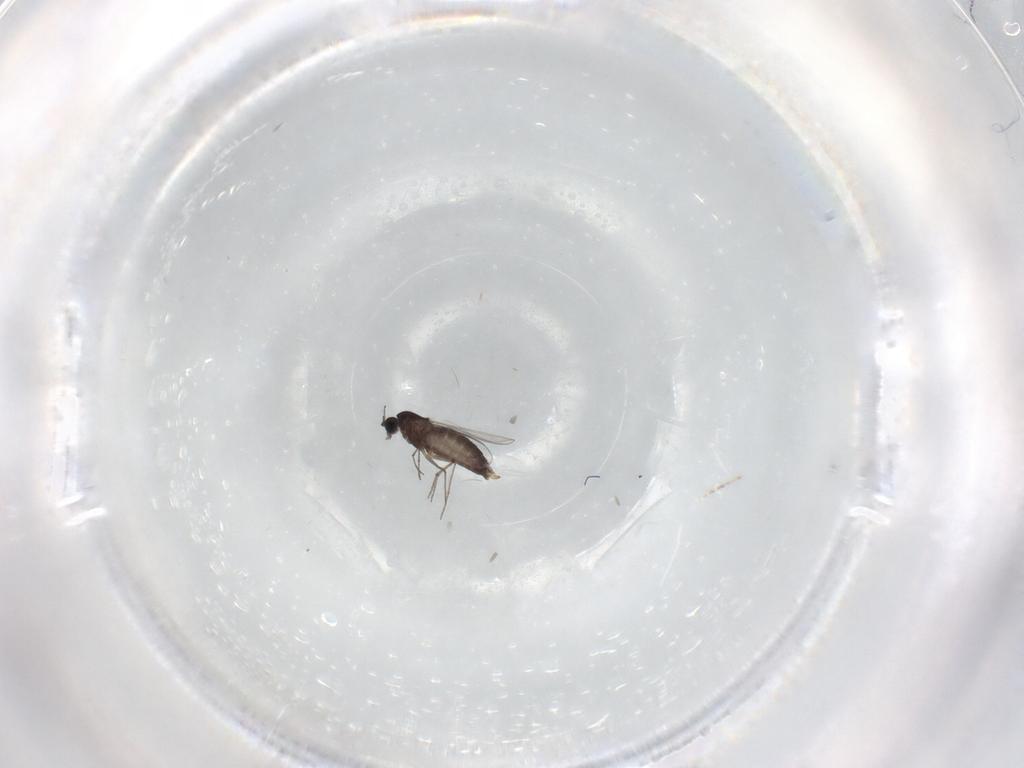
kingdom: Animalia
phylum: Arthropoda
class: Insecta
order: Diptera
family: Chironomidae
